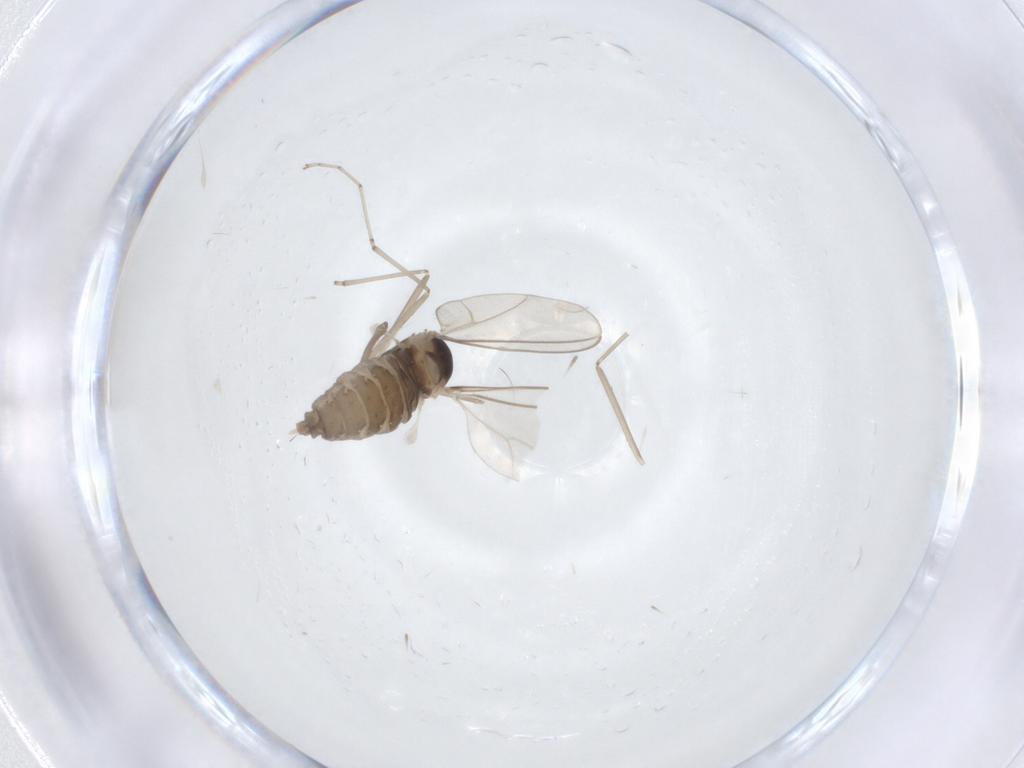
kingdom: Animalia
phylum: Arthropoda
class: Insecta
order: Diptera
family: Cecidomyiidae
